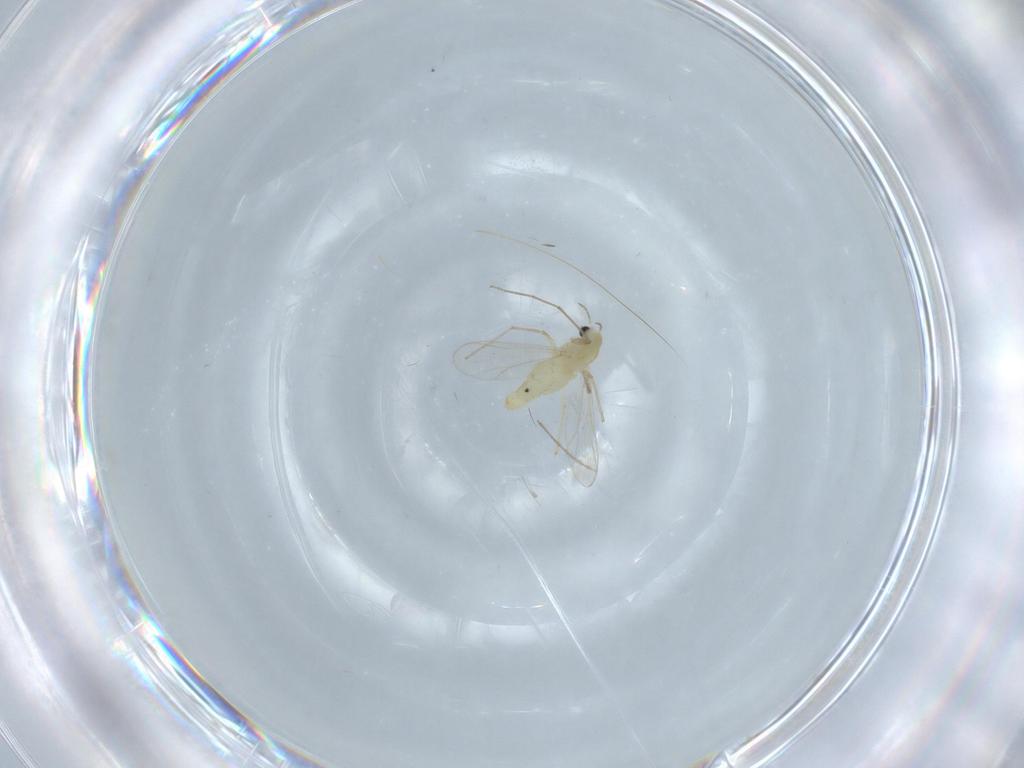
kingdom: Animalia
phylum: Arthropoda
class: Insecta
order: Diptera
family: Chironomidae
